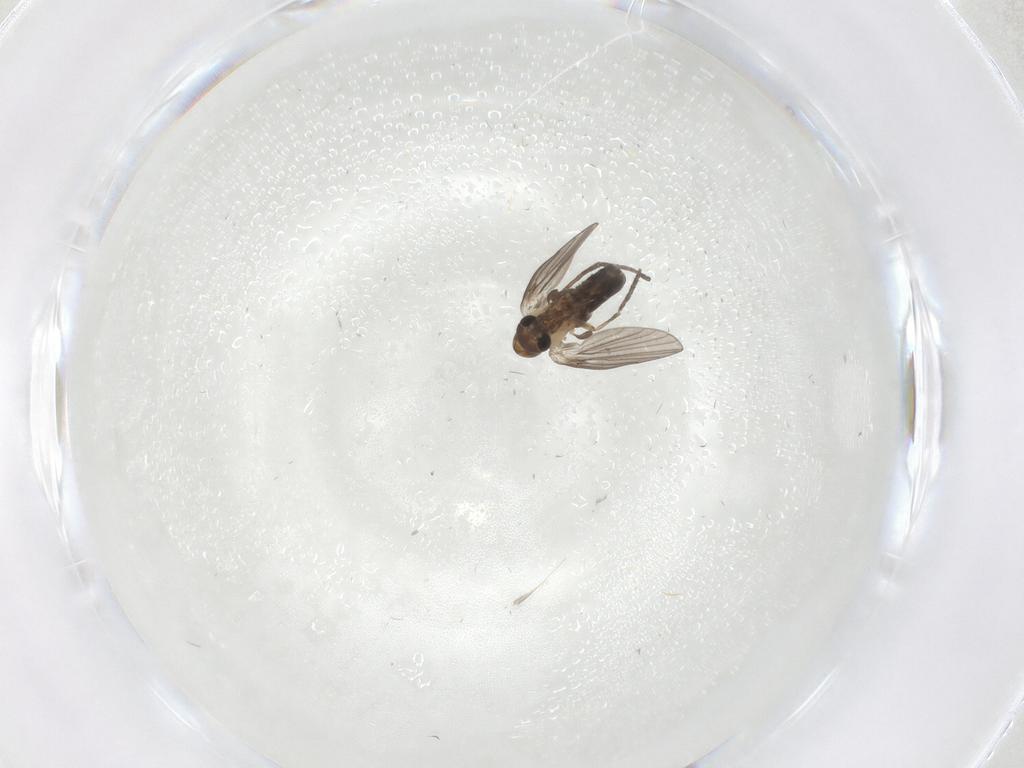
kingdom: Animalia
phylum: Arthropoda
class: Insecta
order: Diptera
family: Psychodidae
